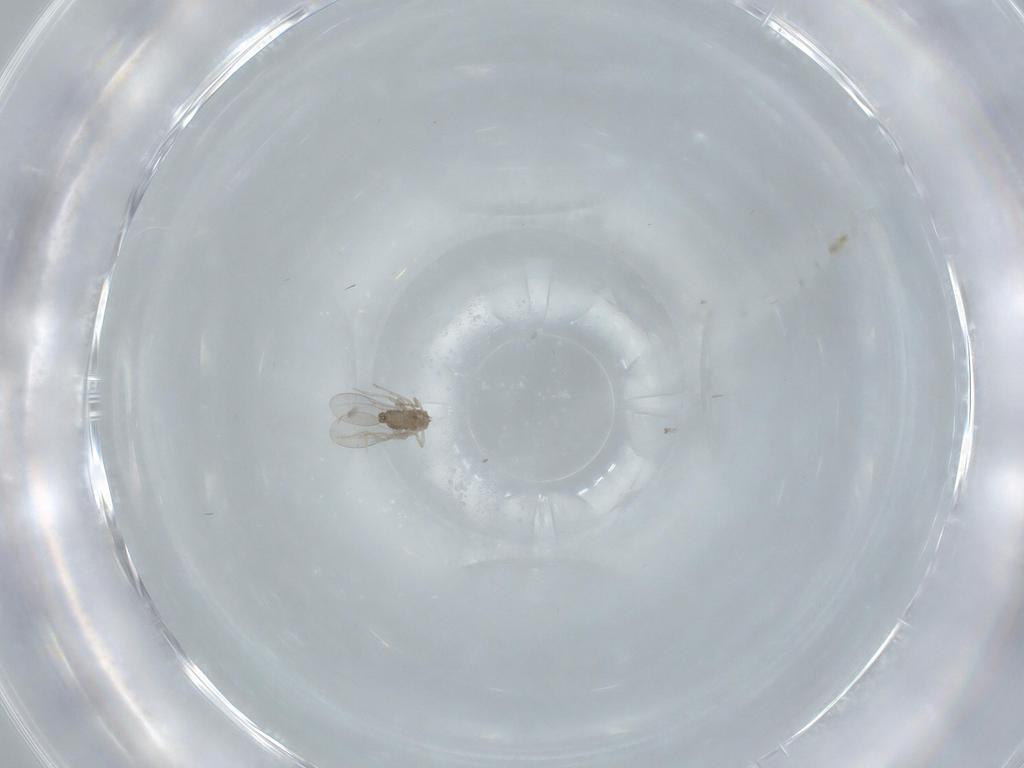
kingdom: Animalia
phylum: Arthropoda
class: Insecta
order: Diptera
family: Cecidomyiidae
